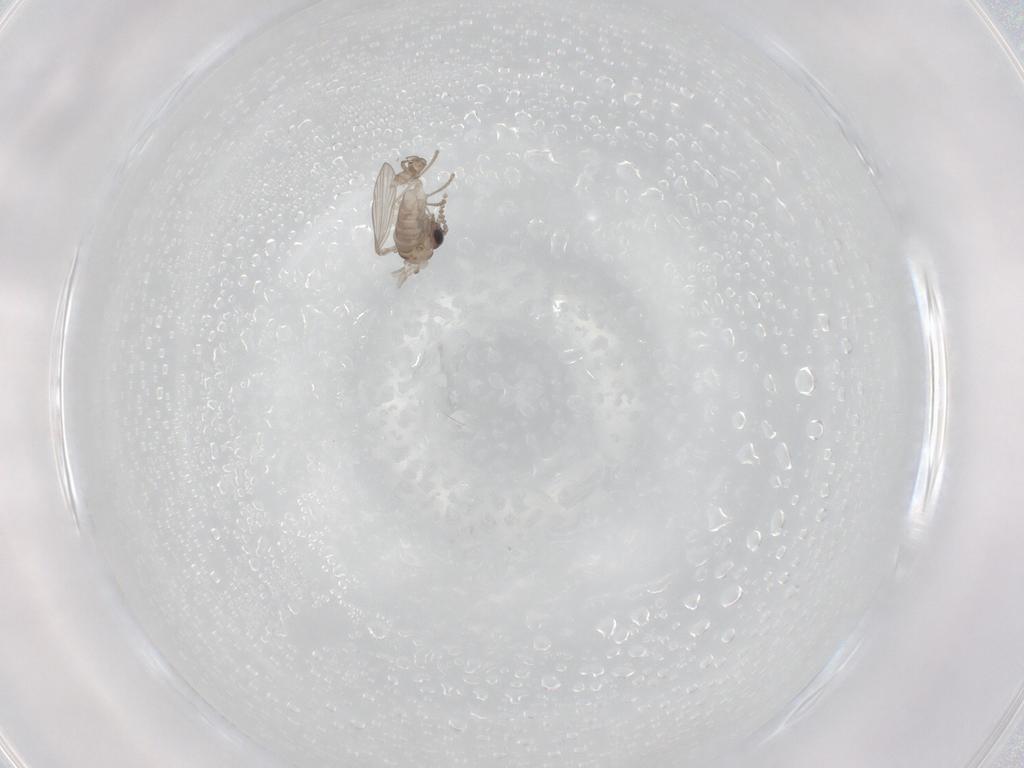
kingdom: Animalia
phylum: Arthropoda
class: Insecta
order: Diptera
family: Psychodidae
